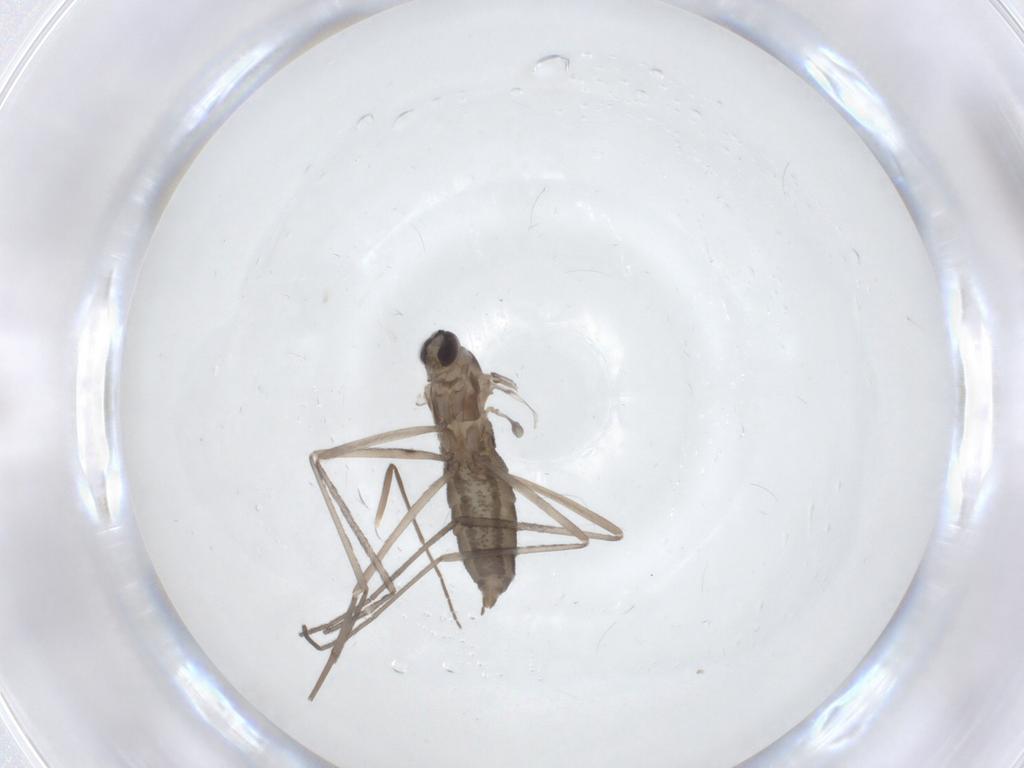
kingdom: Animalia
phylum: Arthropoda
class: Insecta
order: Diptera
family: Cecidomyiidae
